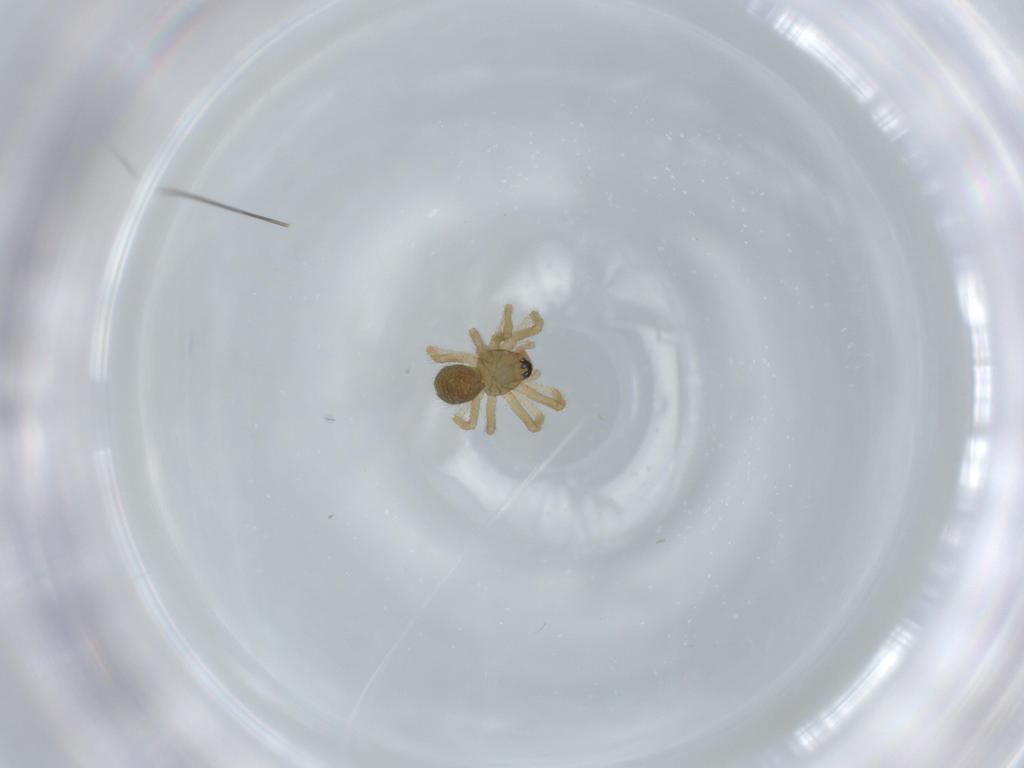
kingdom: Animalia
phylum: Arthropoda
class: Arachnida
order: Araneae
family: Linyphiidae
